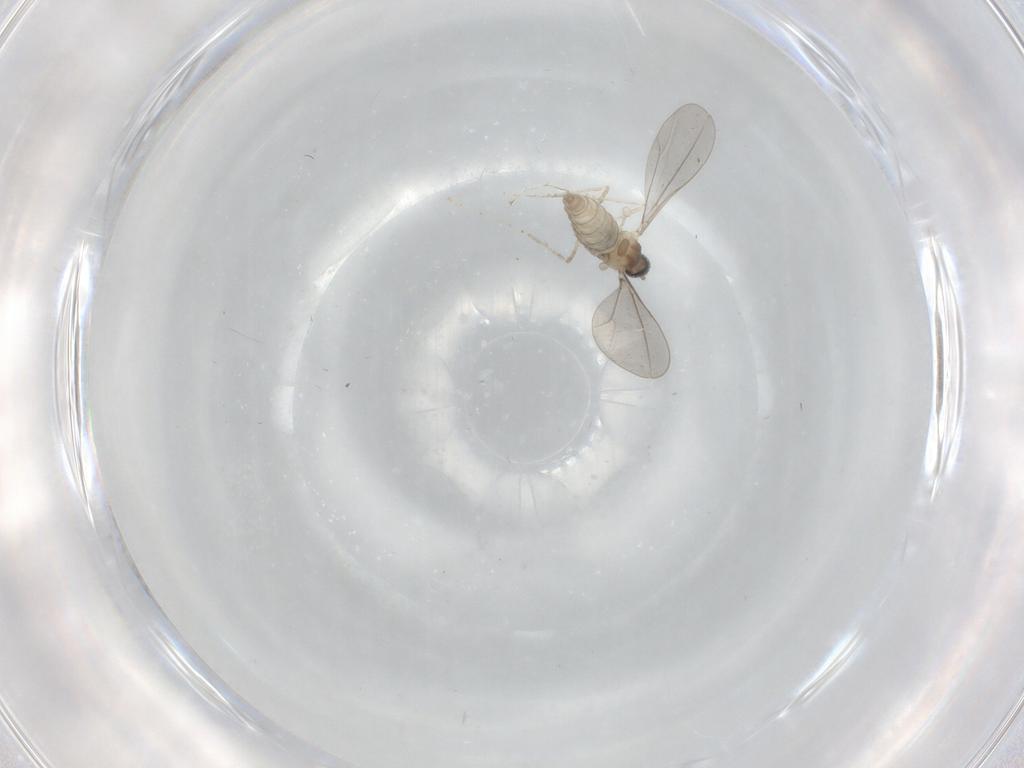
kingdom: Animalia
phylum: Arthropoda
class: Insecta
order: Diptera
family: Cecidomyiidae
